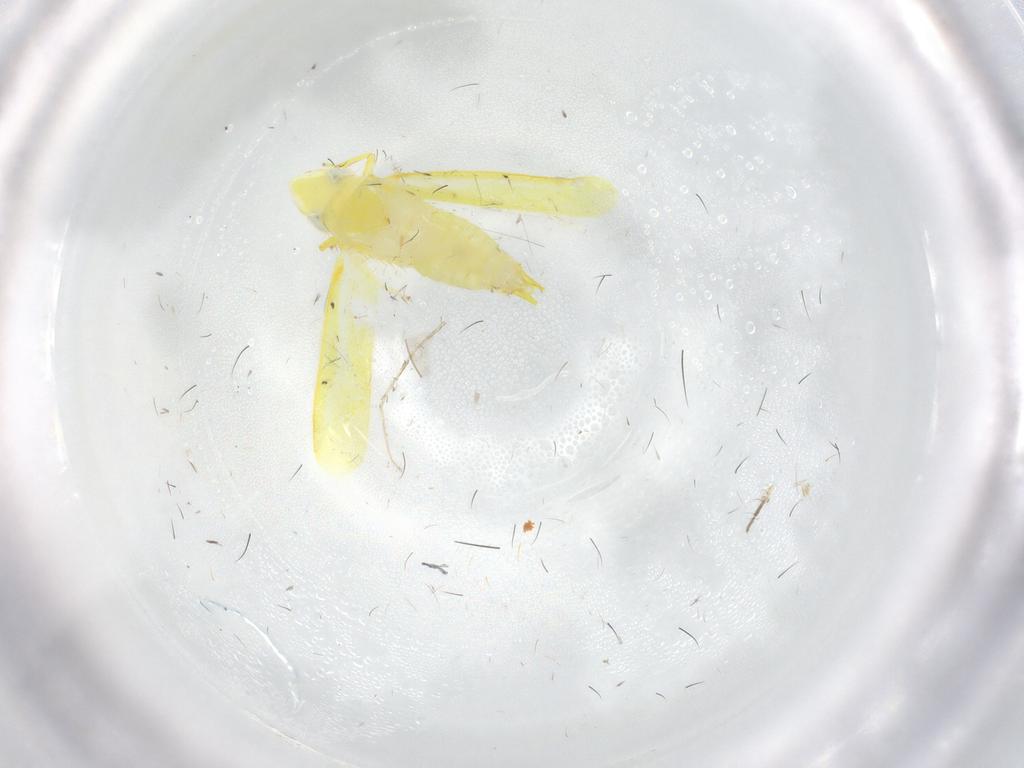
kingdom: Animalia
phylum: Arthropoda
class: Insecta
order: Hemiptera
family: Cicadellidae
